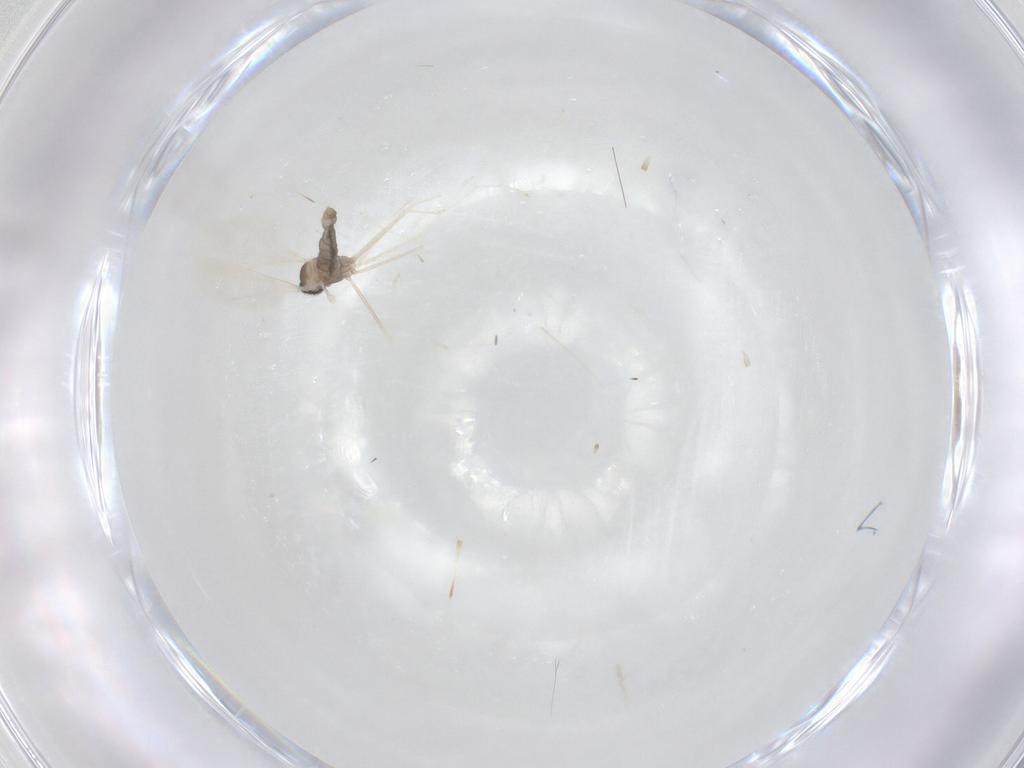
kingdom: Animalia
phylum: Arthropoda
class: Insecta
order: Diptera
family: Cecidomyiidae
